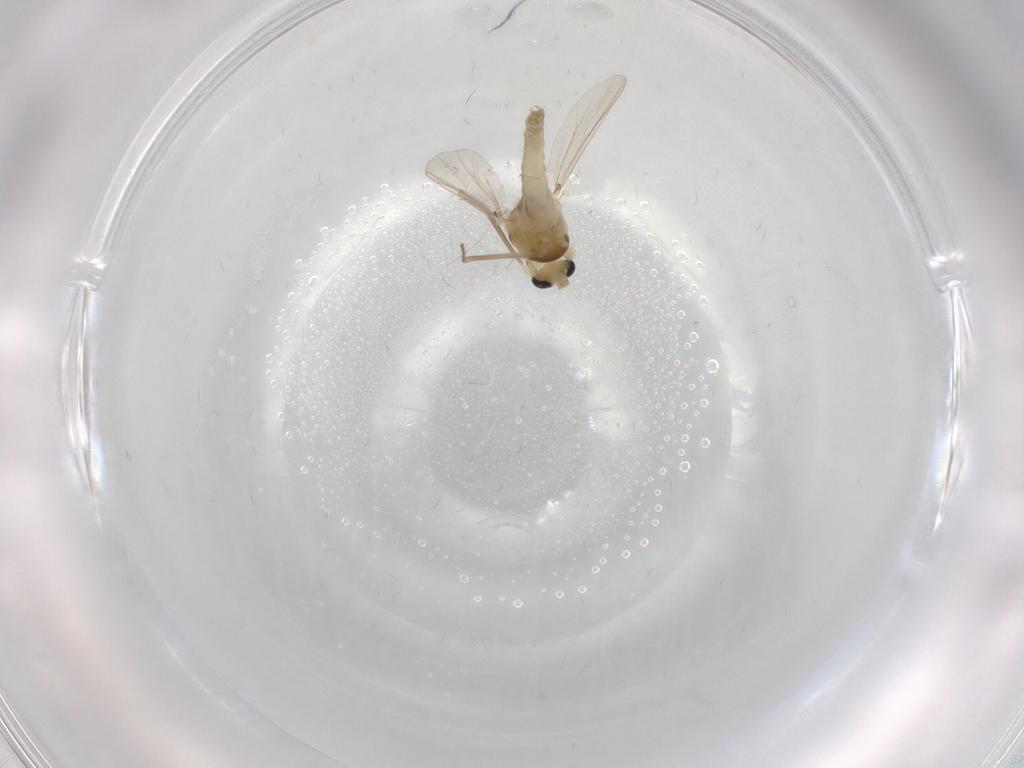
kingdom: Animalia
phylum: Arthropoda
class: Insecta
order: Diptera
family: Chironomidae
